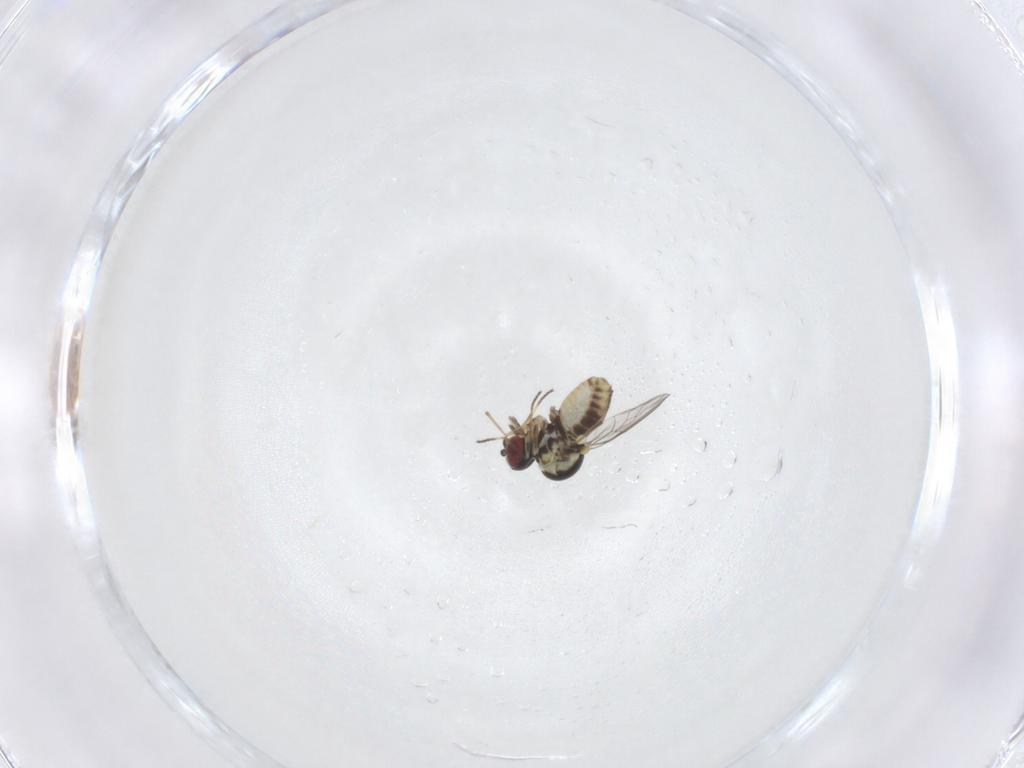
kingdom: Animalia
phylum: Arthropoda
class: Insecta
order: Diptera
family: Mythicomyiidae
